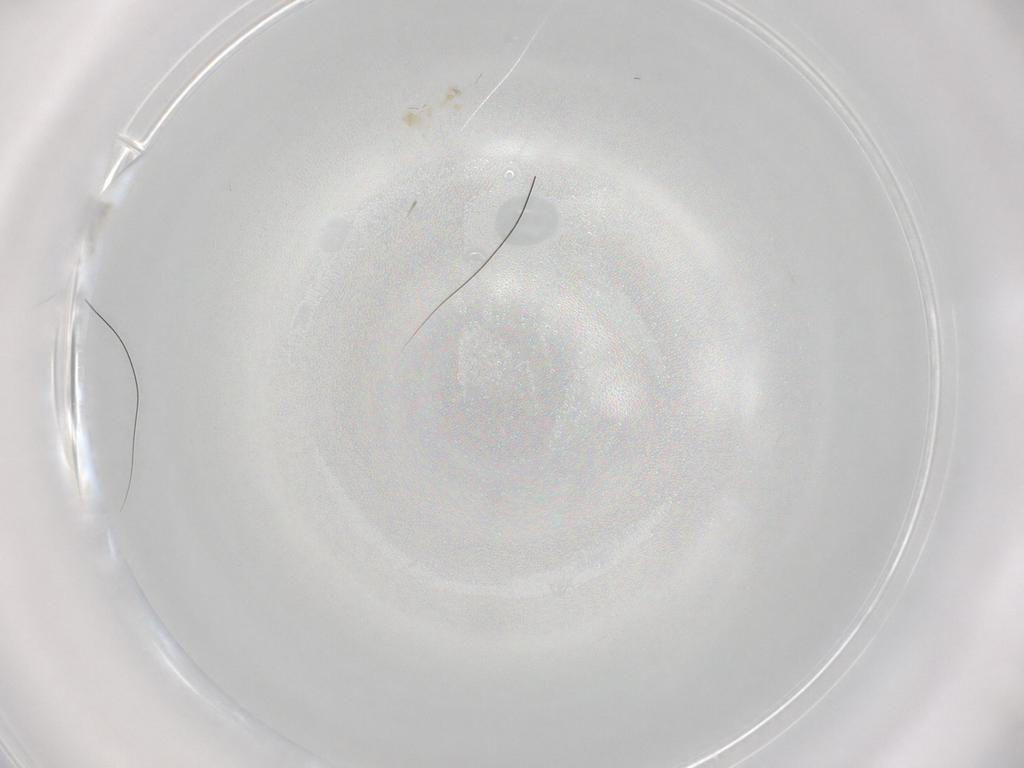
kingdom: Animalia
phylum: Arthropoda
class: Insecta
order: Thysanoptera
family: Thripidae
